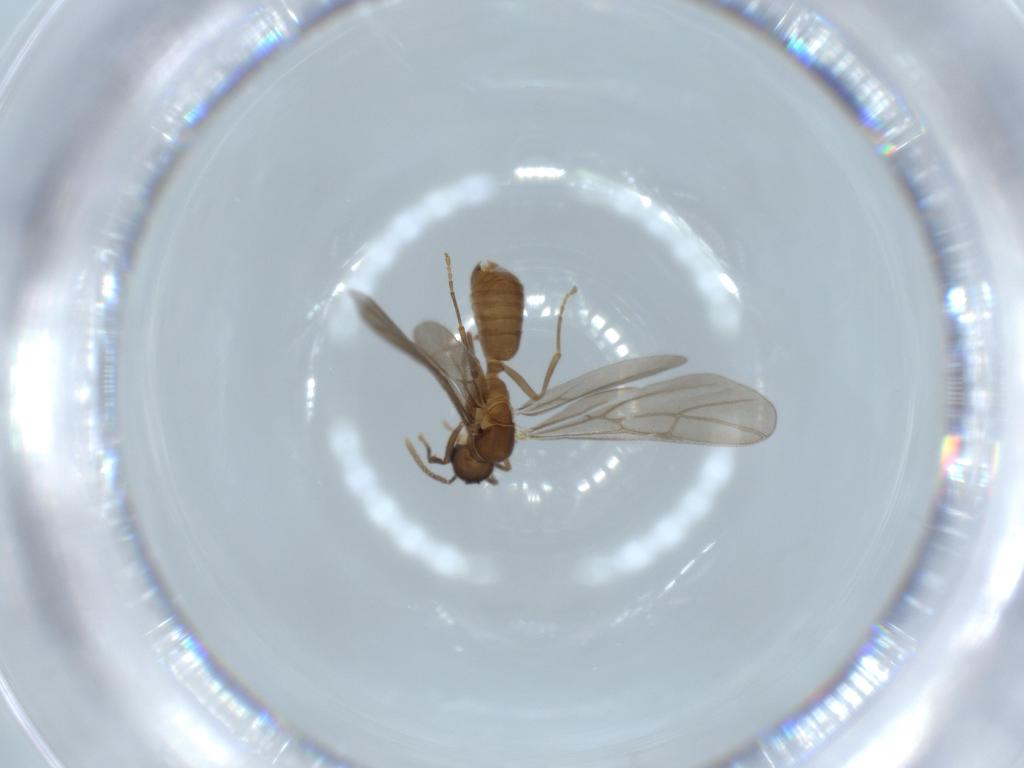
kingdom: Animalia
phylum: Arthropoda
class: Insecta
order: Hymenoptera
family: Formicidae
